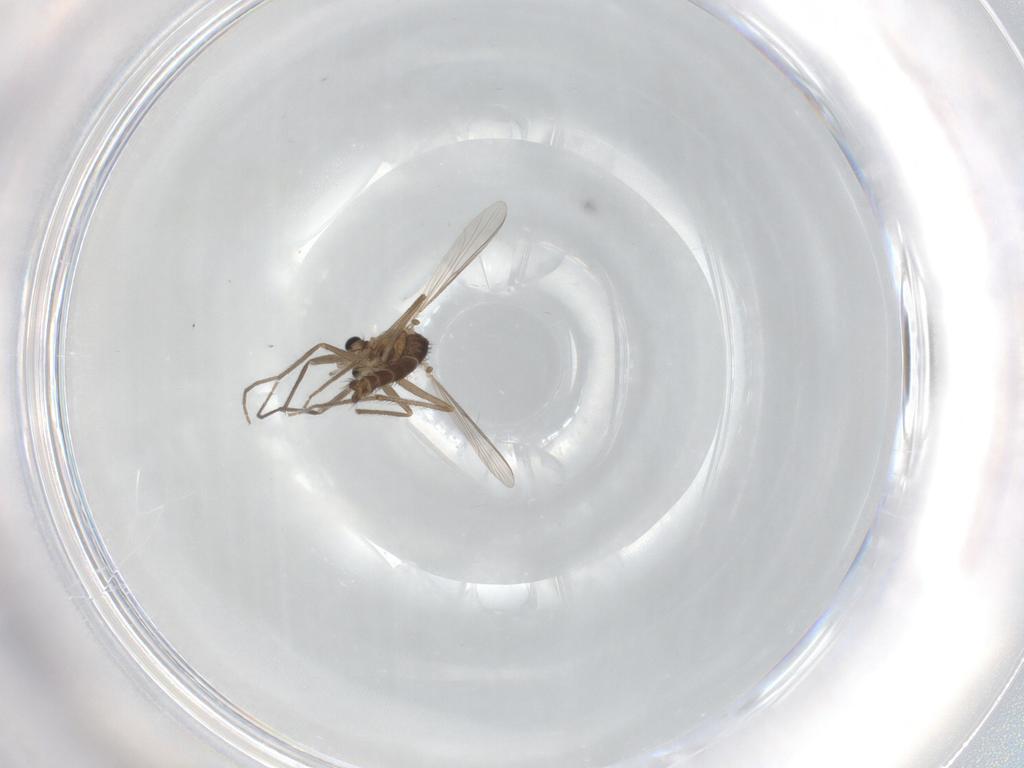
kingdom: Animalia
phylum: Arthropoda
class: Insecta
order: Diptera
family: Chironomidae
